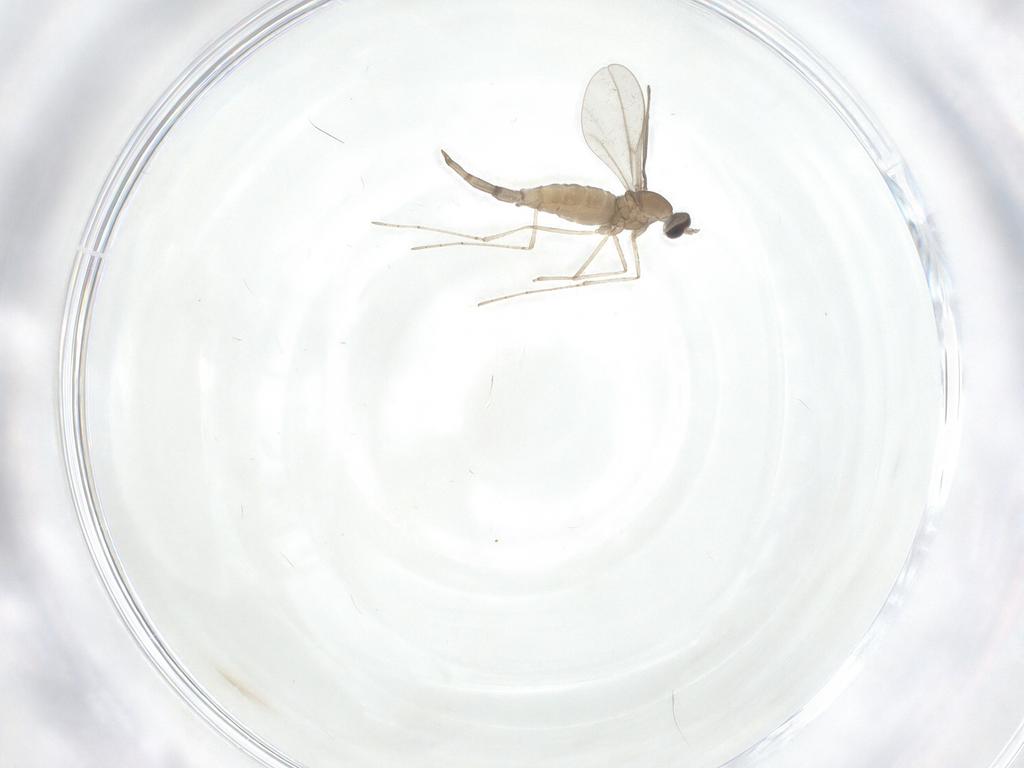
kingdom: Animalia
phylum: Arthropoda
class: Insecta
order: Diptera
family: Cecidomyiidae
